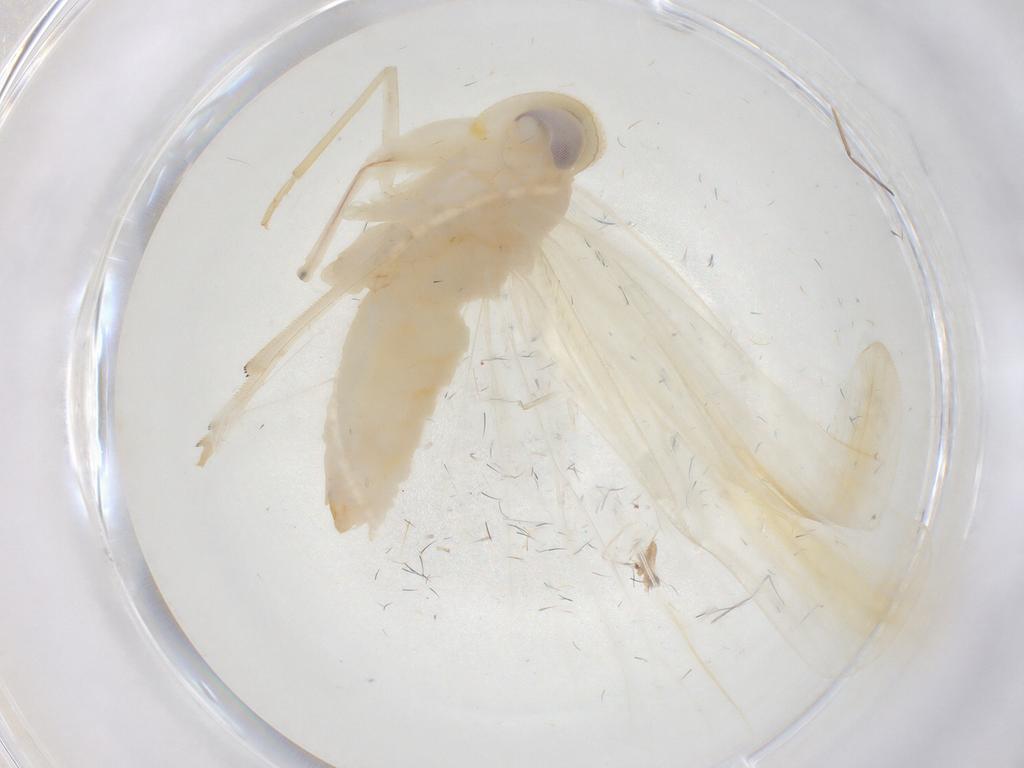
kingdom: Animalia
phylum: Arthropoda
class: Insecta
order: Hemiptera
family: Derbidae
